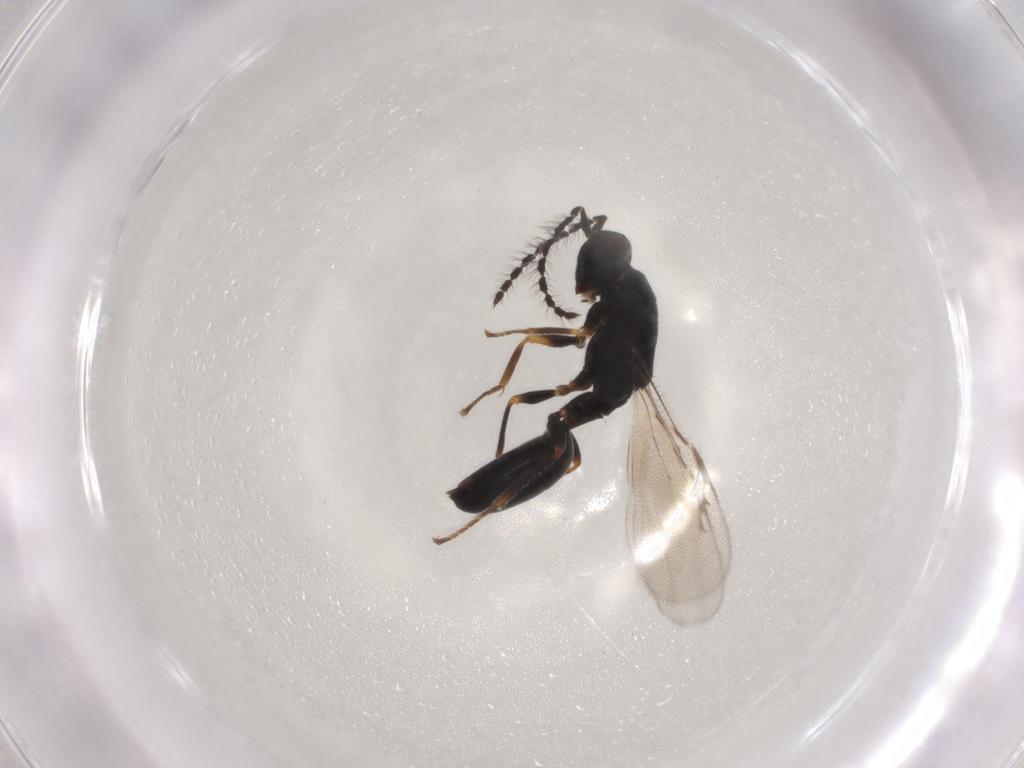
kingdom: Animalia
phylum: Arthropoda
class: Insecta
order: Hymenoptera
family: Eurytomidae
